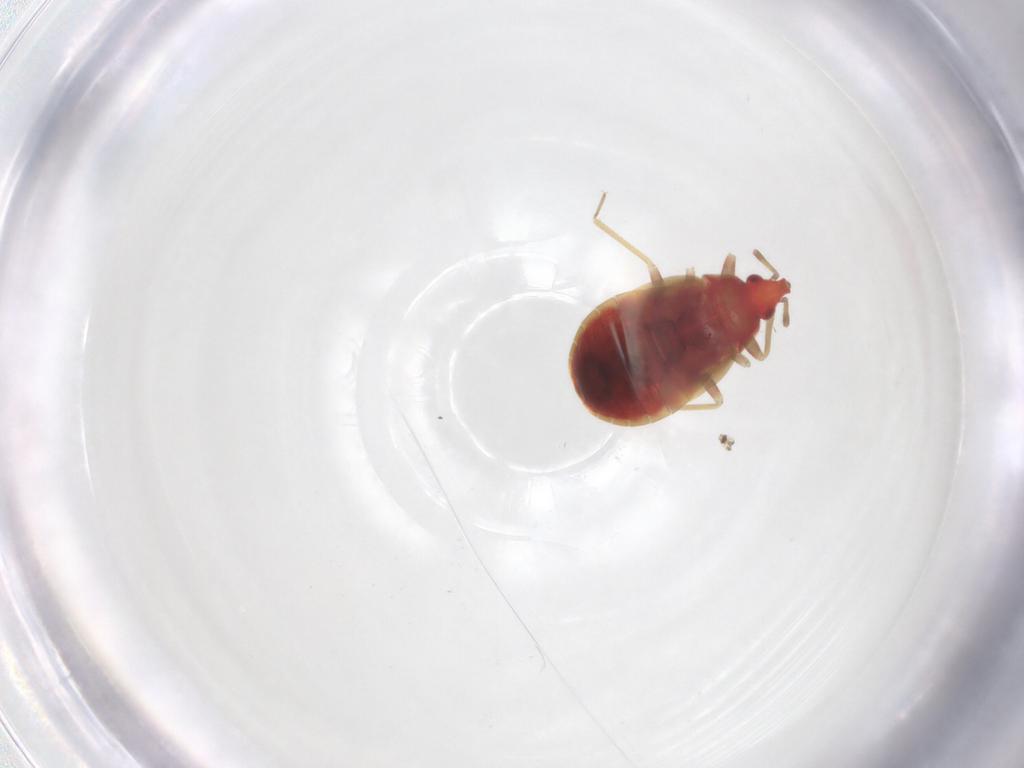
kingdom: Animalia
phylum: Arthropoda
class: Insecta
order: Hemiptera
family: Anthocoridae
